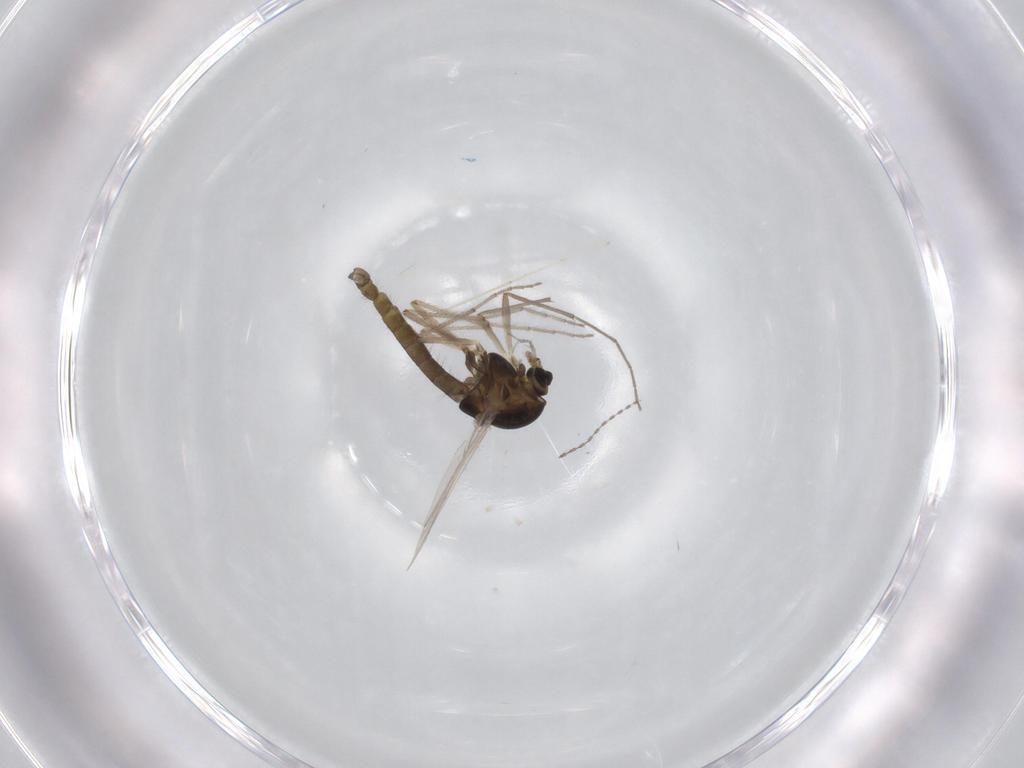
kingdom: Animalia
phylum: Arthropoda
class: Insecta
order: Diptera
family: Chironomidae
